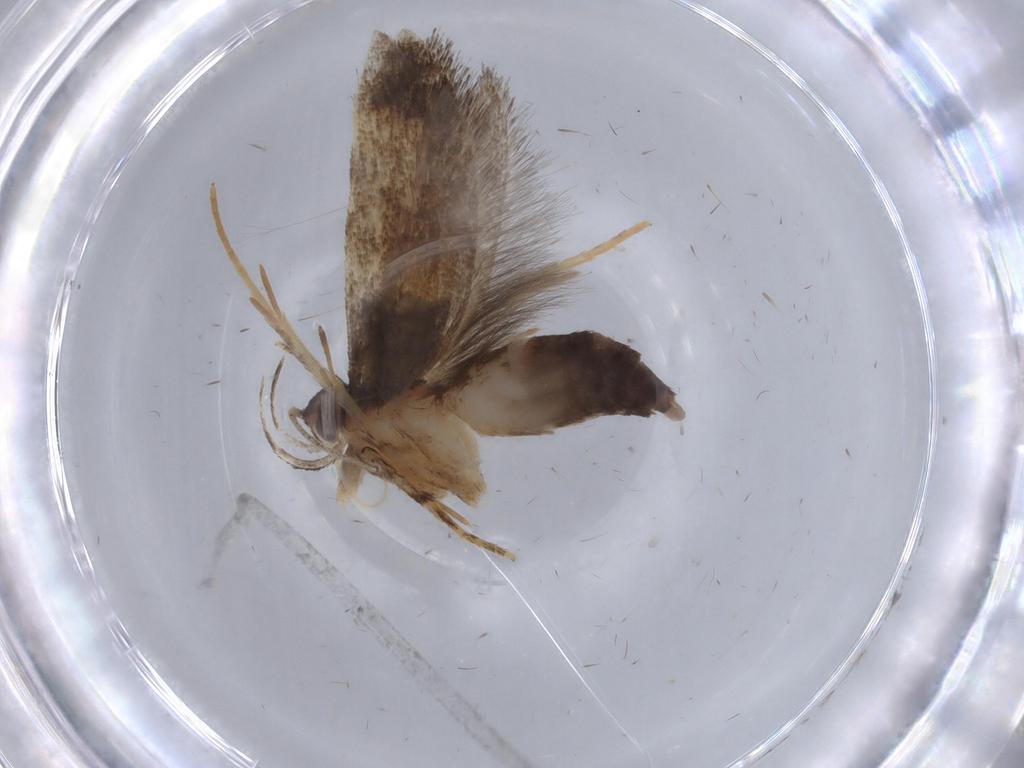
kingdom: Animalia
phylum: Arthropoda
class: Insecta
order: Lepidoptera
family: Cosmopterigidae
